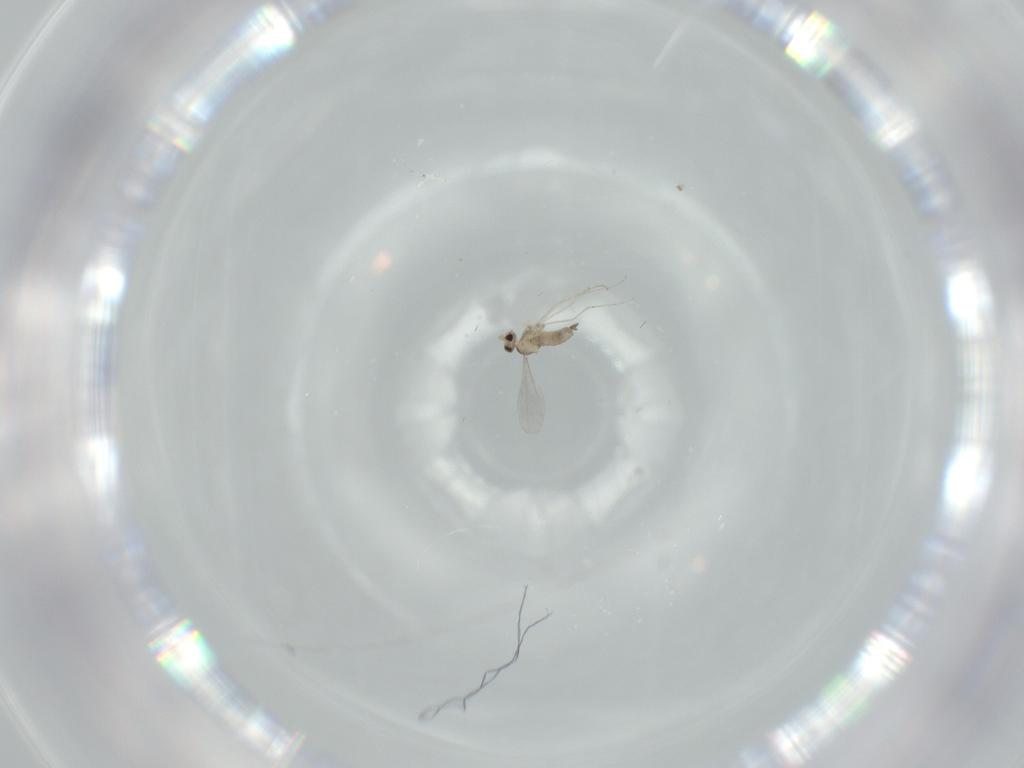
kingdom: Animalia
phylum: Arthropoda
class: Insecta
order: Diptera
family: Cecidomyiidae
